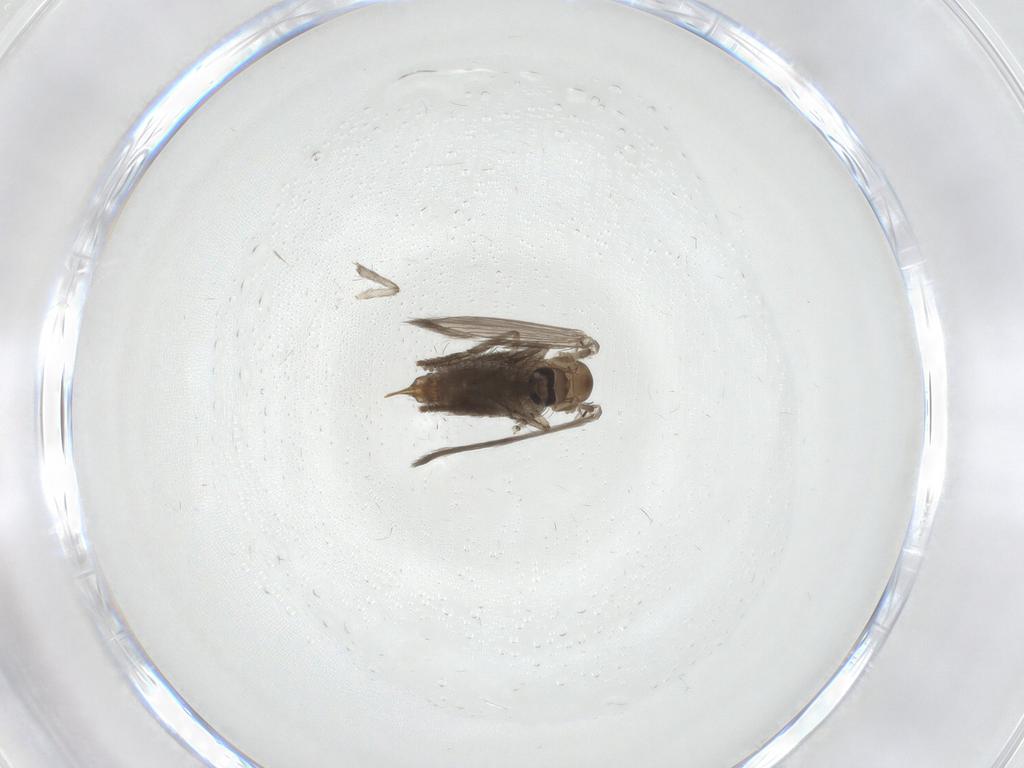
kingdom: Animalia
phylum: Arthropoda
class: Insecta
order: Diptera
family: Psychodidae
